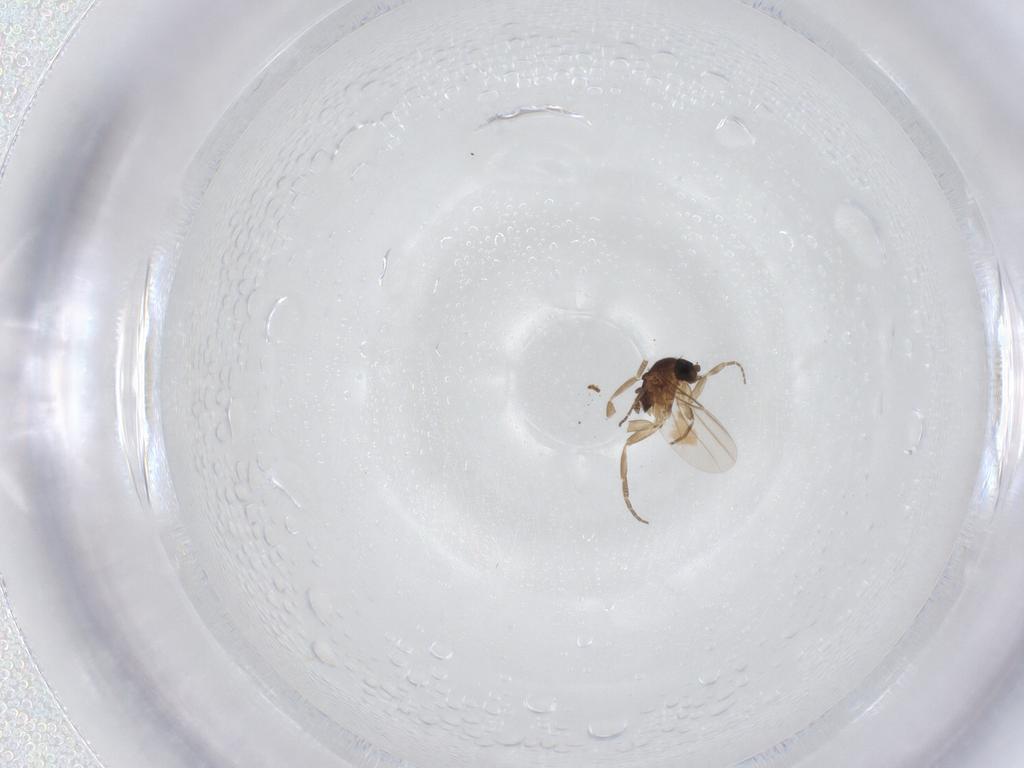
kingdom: Animalia
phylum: Arthropoda
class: Insecta
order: Diptera
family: Phoridae
